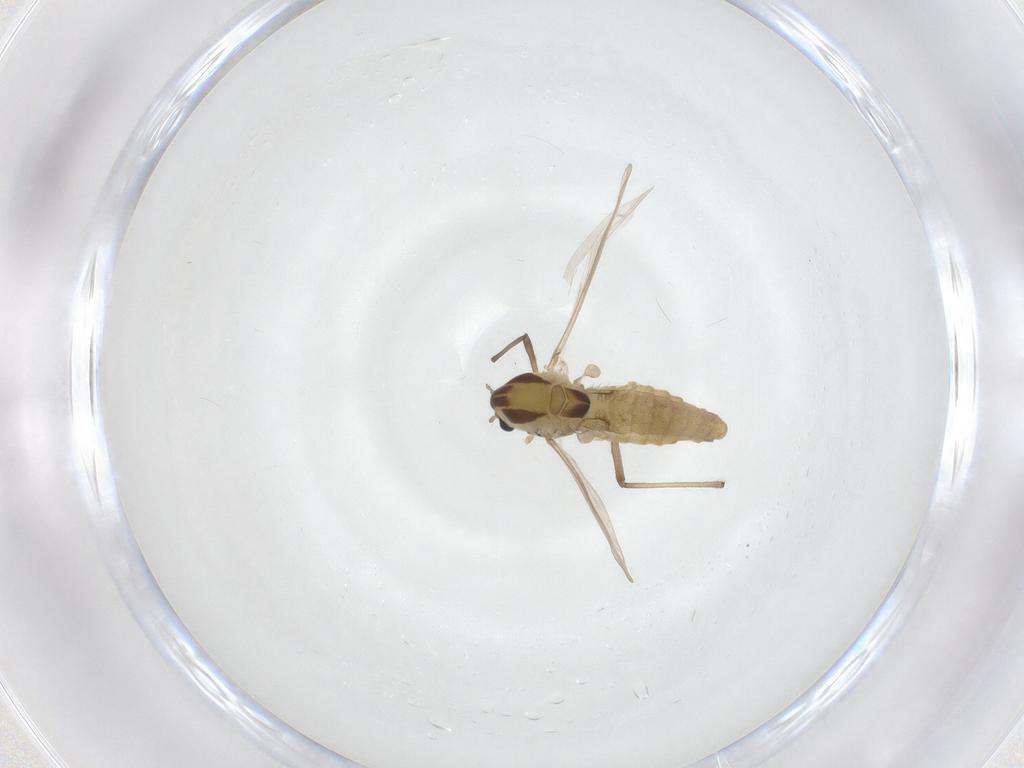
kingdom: Animalia
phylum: Arthropoda
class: Insecta
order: Diptera
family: Chironomidae
